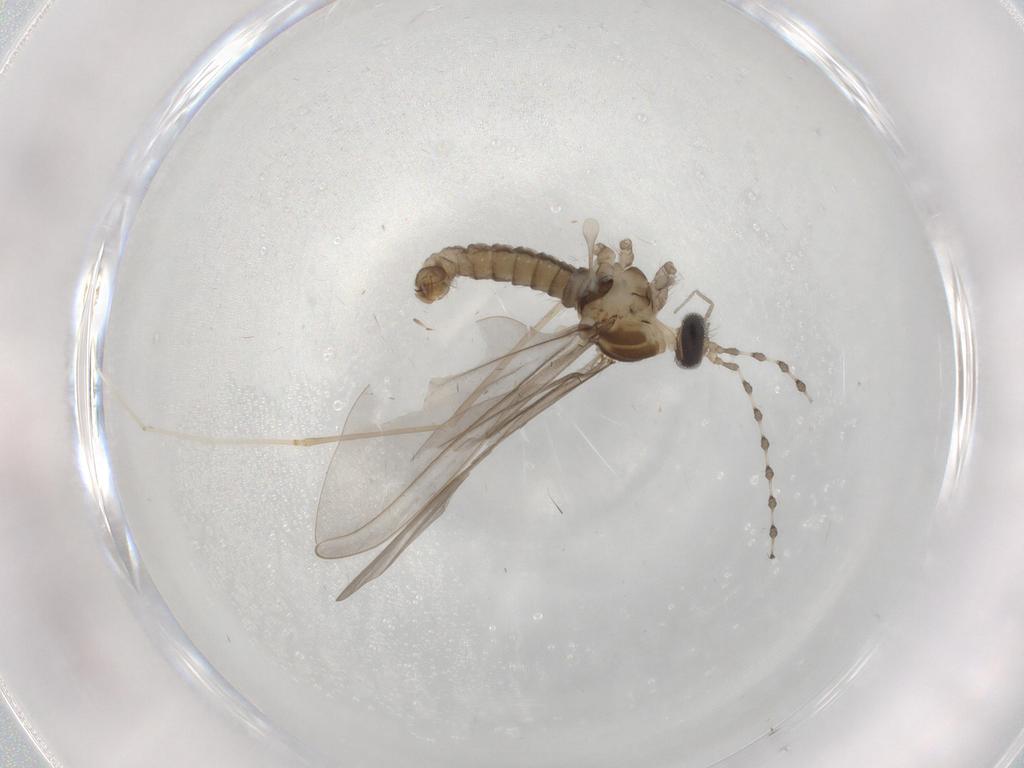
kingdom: Animalia
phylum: Arthropoda
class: Insecta
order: Diptera
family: Cecidomyiidae
